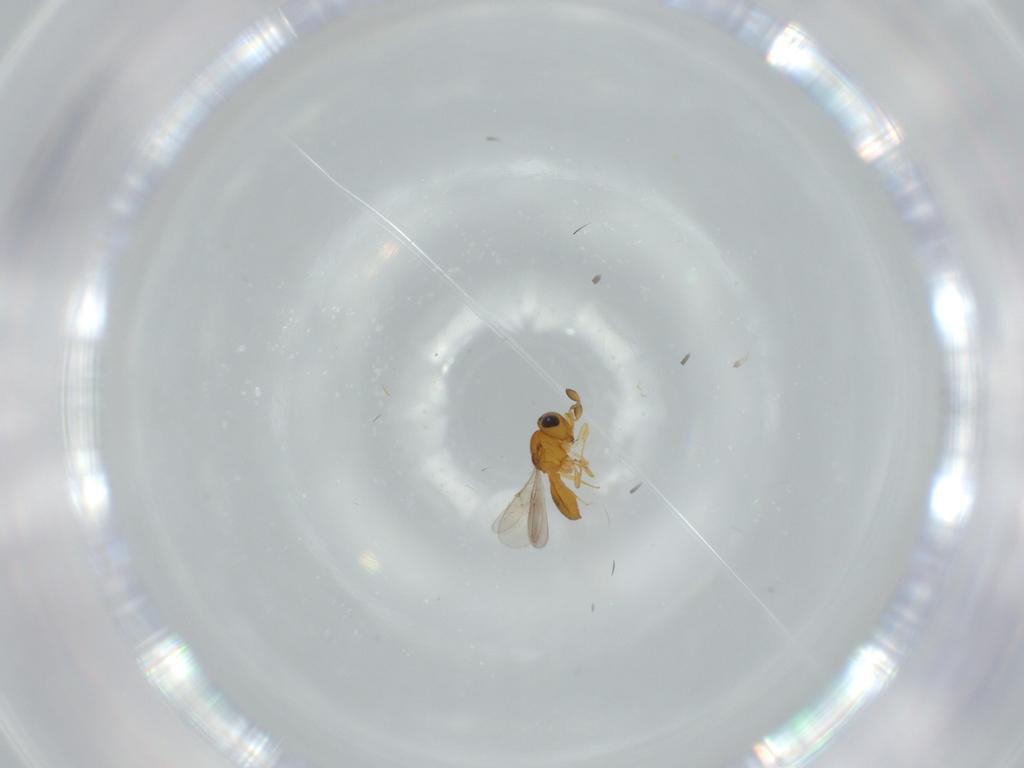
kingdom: Animalia
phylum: Arthropoda
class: Insecta
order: Hymenoptera
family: Scelionidae
